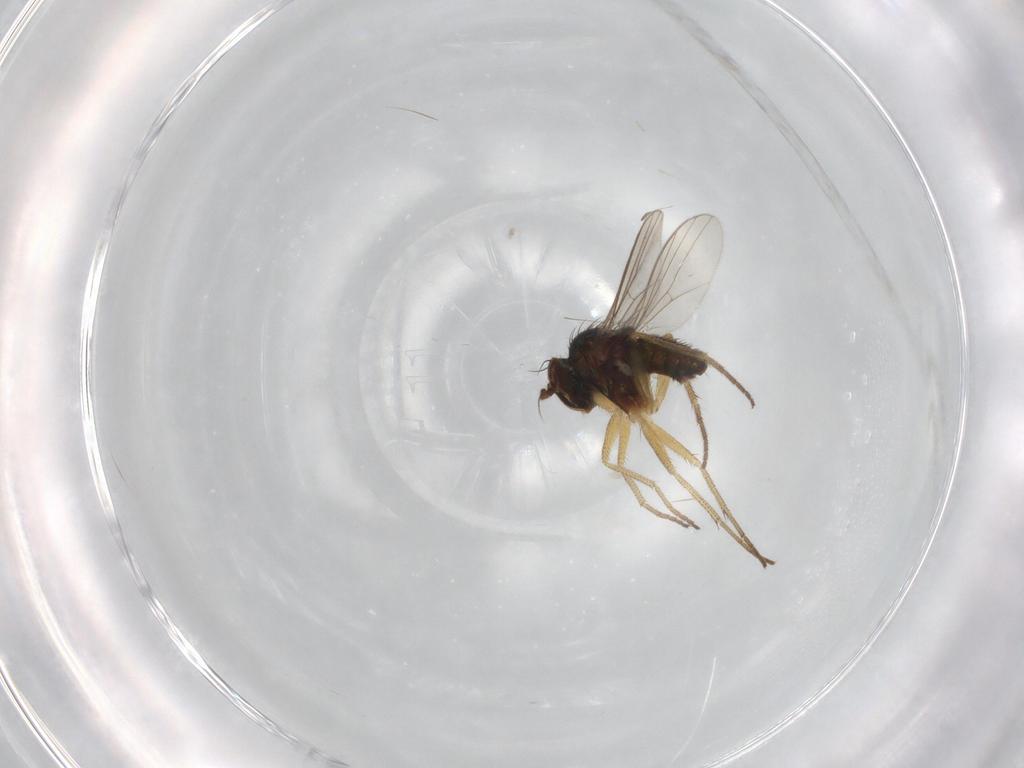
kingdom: Animalia
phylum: Arthropoda
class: Insecta
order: Diptera
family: Dolichopodidae
